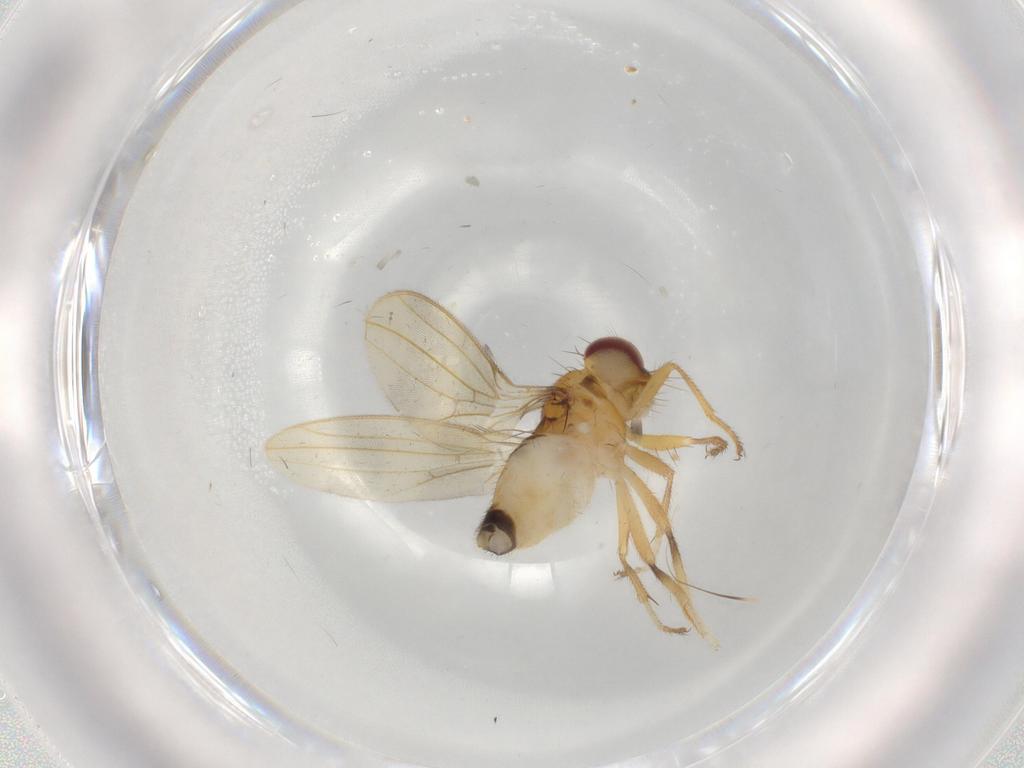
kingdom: Animalia
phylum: Arthropoda
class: Insecta
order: Diptera
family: Periscelididae
